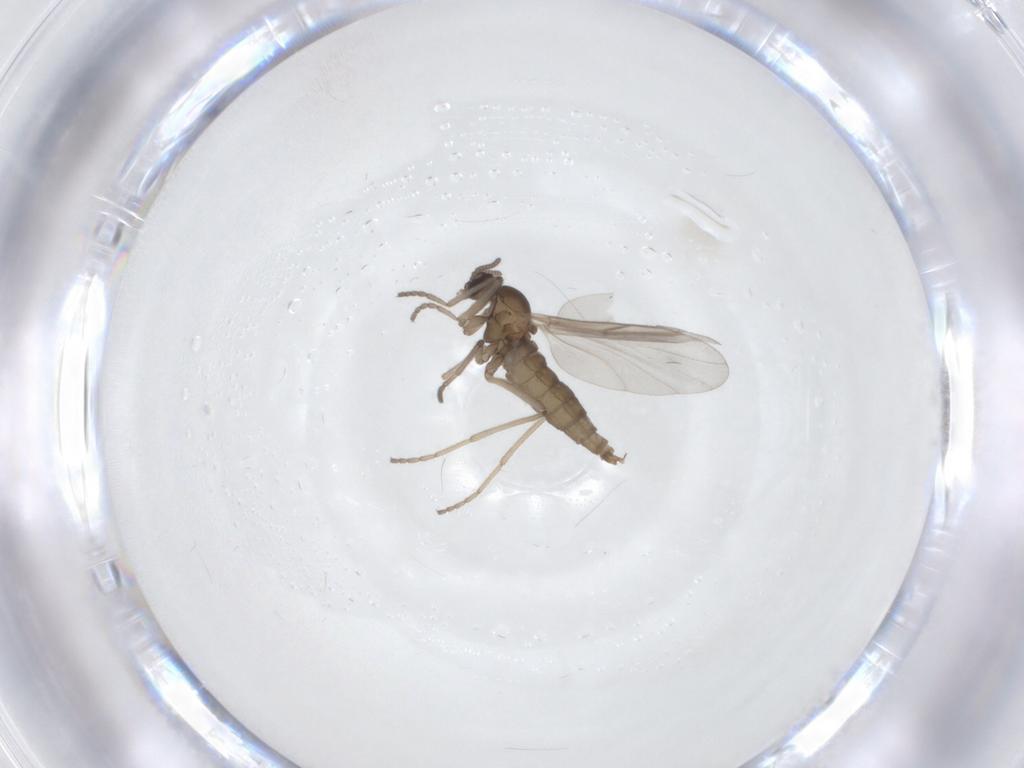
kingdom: Animalia
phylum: Arthropoda
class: Insecta
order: Diptera
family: Cecidomyiidae
